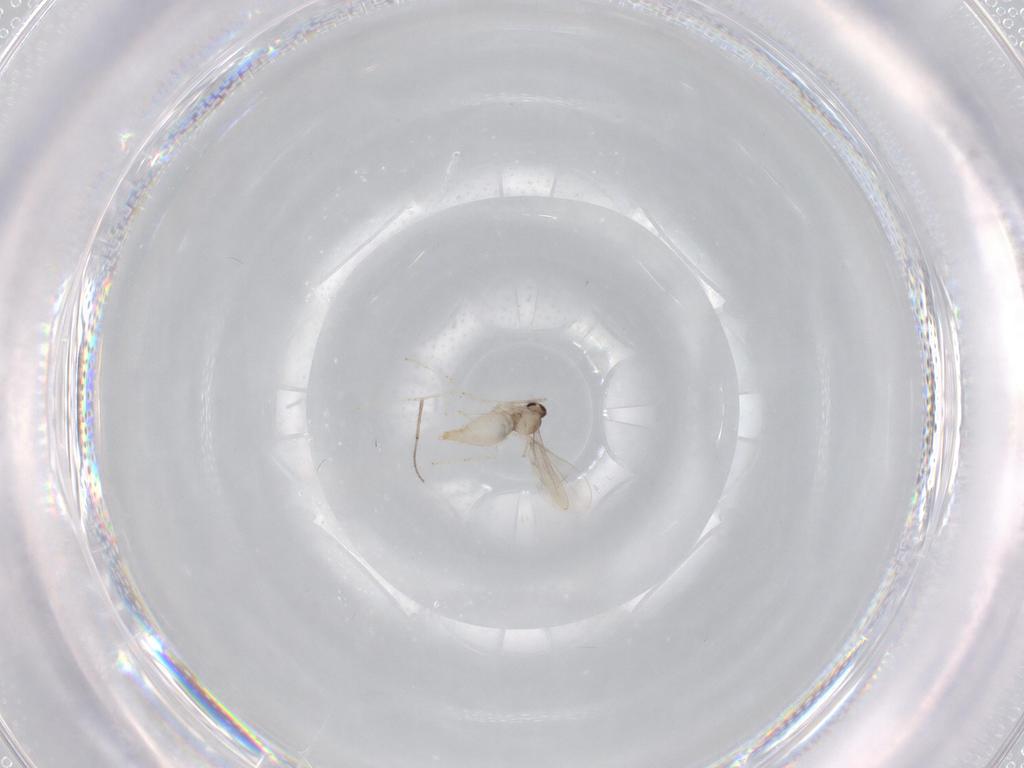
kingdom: Animalia
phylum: Arthropoda
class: Insecta
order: Diptera
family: Cecidomyiidae
